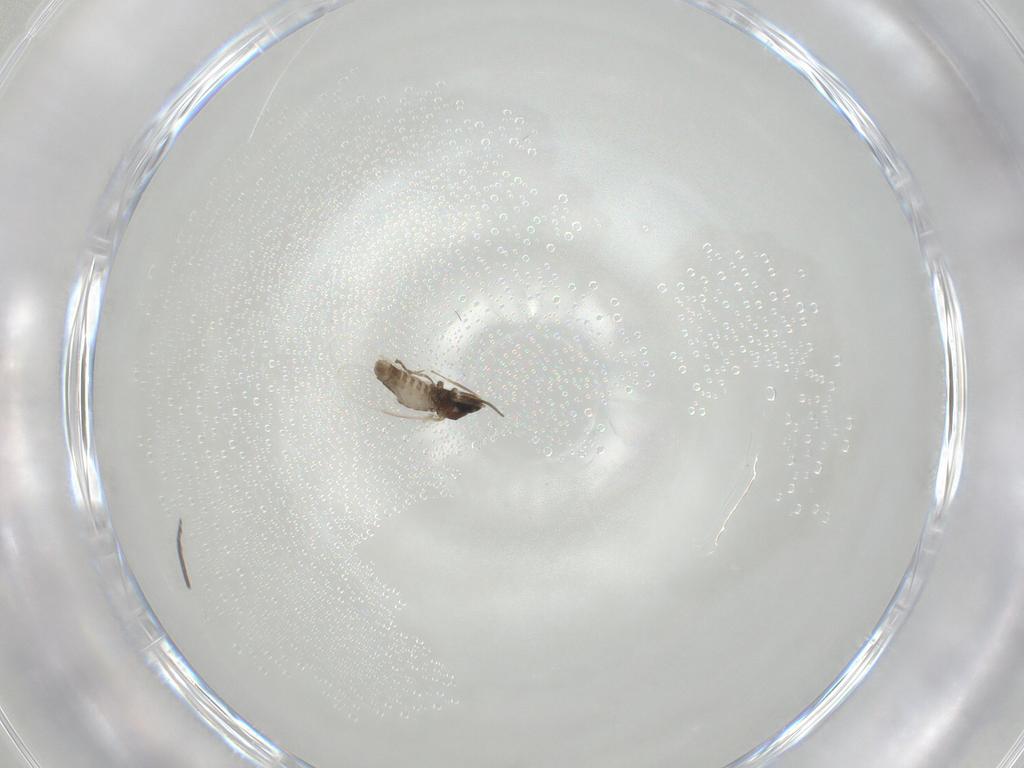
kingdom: Animalia
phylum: Arthropoda
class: Insecta
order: Diptera
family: Cecidomyiidae
